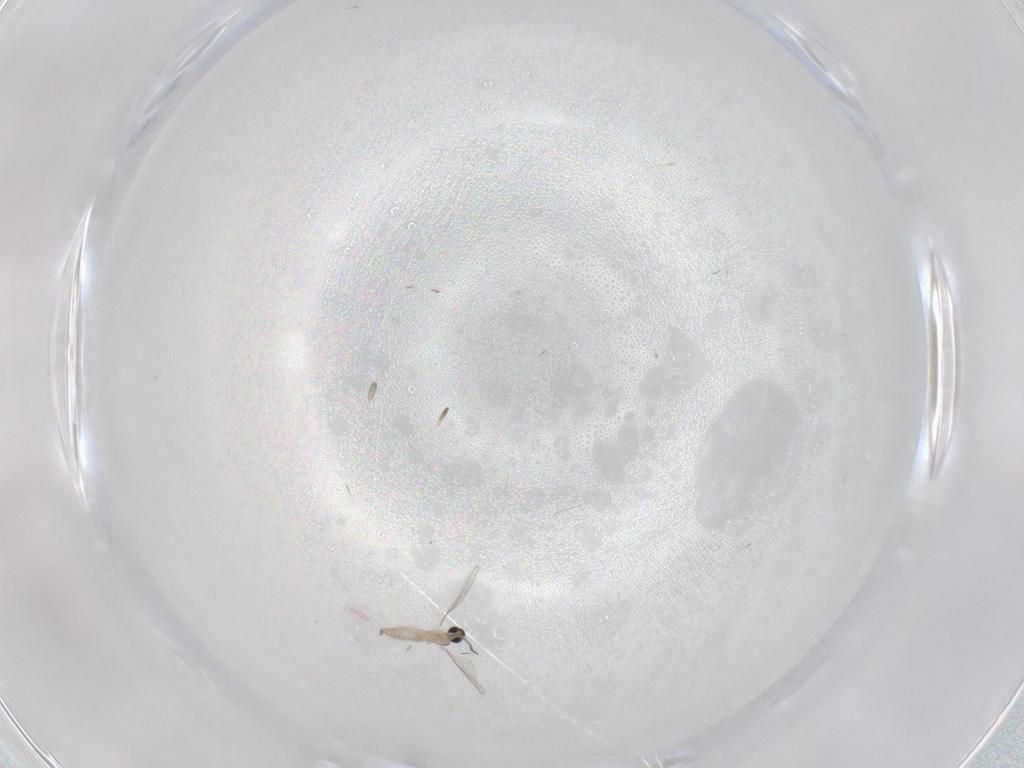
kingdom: Animalia
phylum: Arthropoda
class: Insecta
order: Diptera
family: Cecidomyiidae
